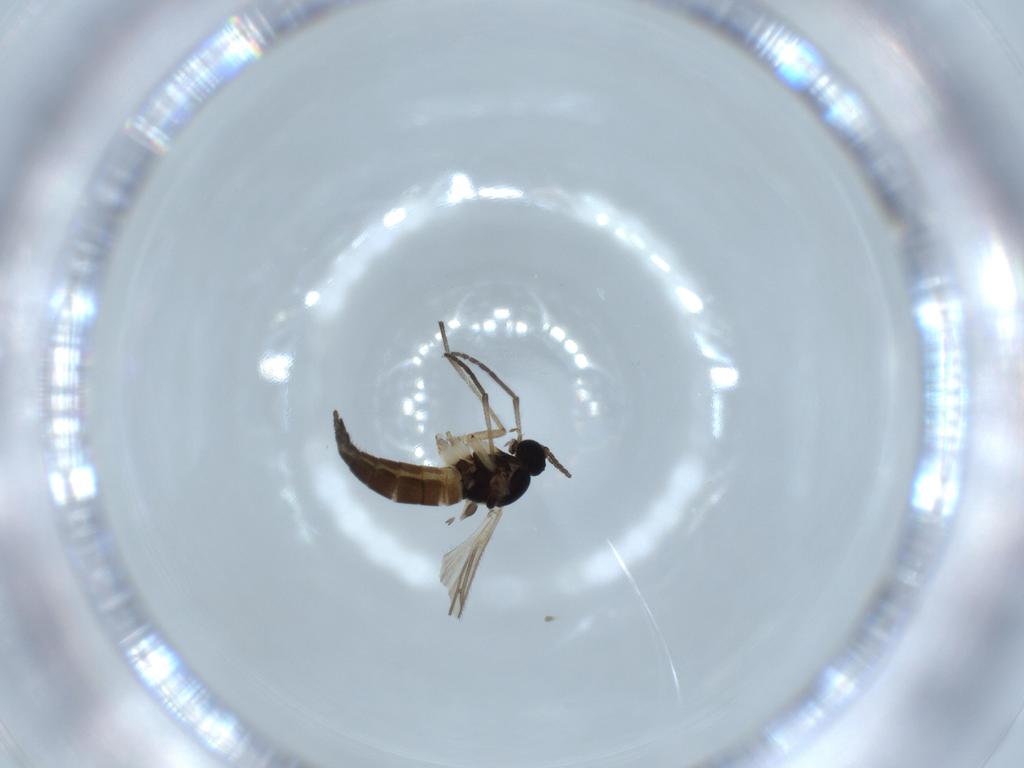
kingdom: Animalia
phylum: Arthropoda
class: Insecta
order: Diptera
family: Sciaridae
